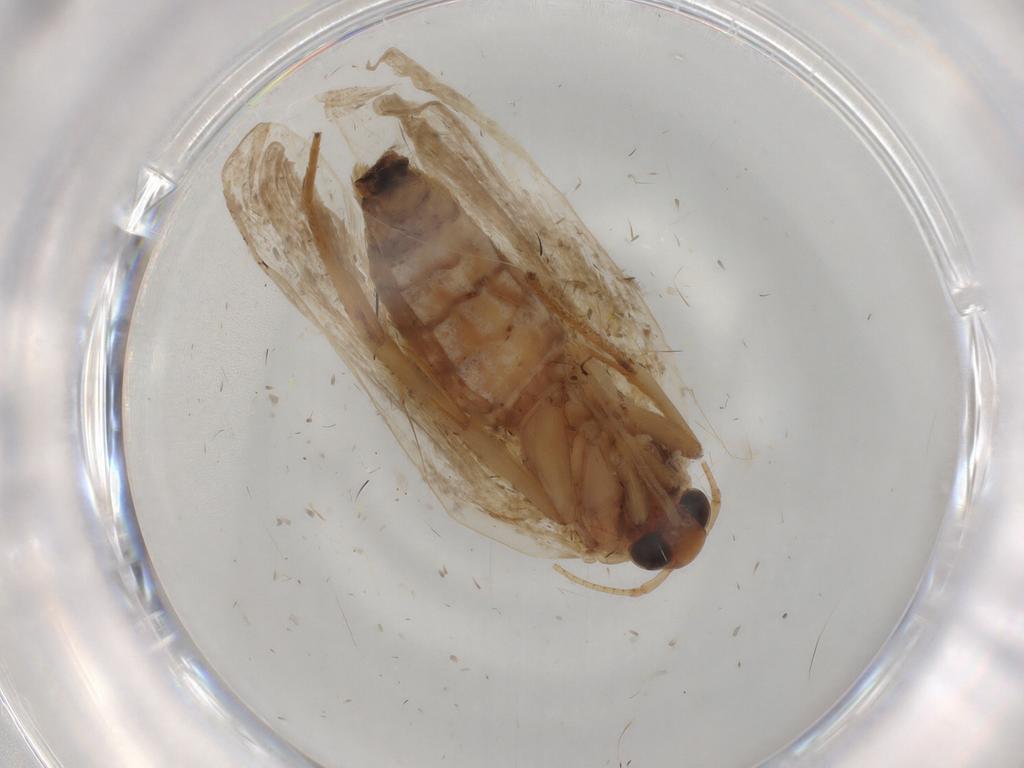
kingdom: Animalia
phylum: Arthropoda
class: Insecta
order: Lepidoptera
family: Depressariidae
